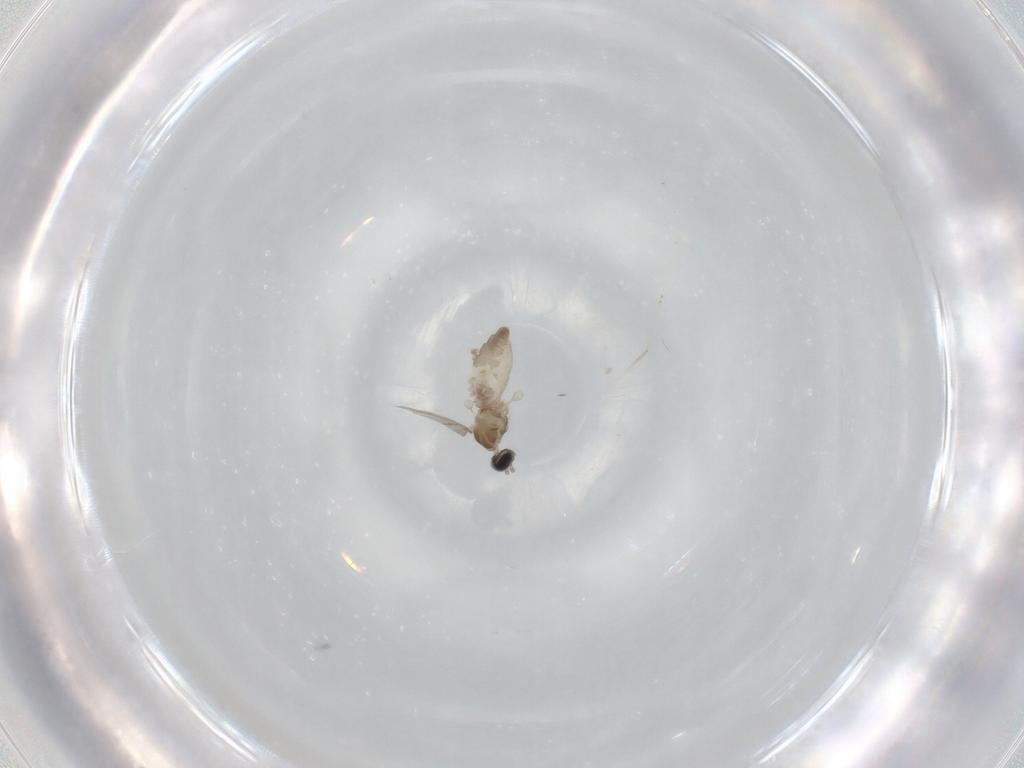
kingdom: Animalia
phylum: Arthropoda
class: Insecta
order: Diptera
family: Cecidomyiidae
